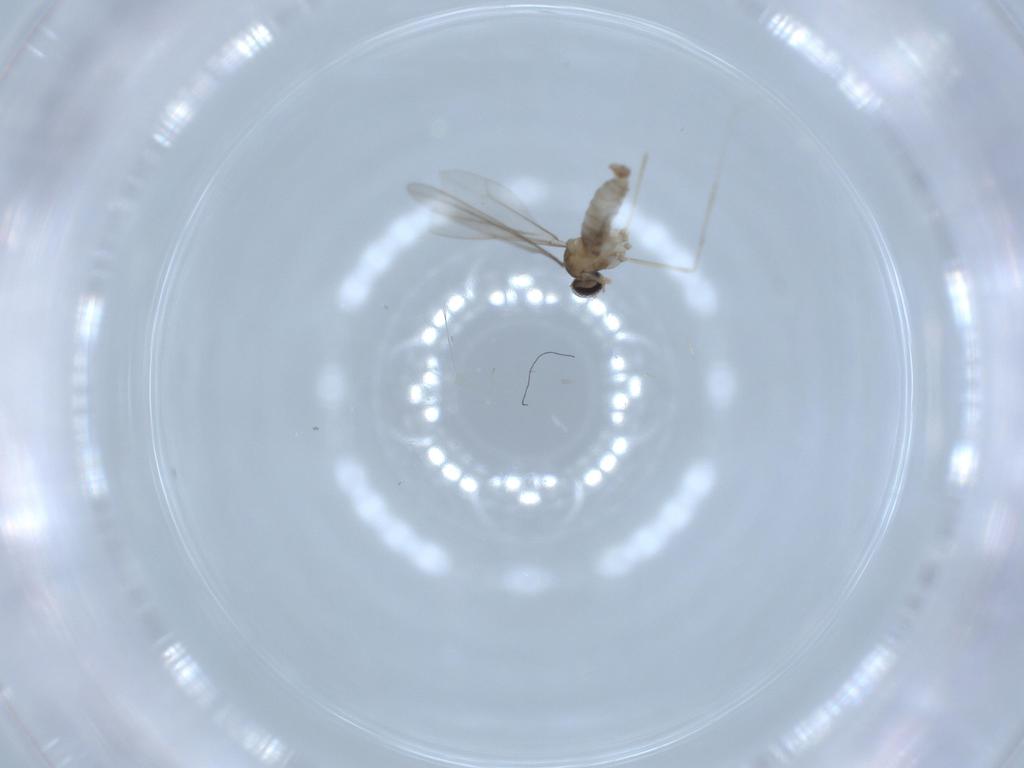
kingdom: Animalia
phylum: Arthropoda
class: Insecta
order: Diptera
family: Cecidomyiidae
